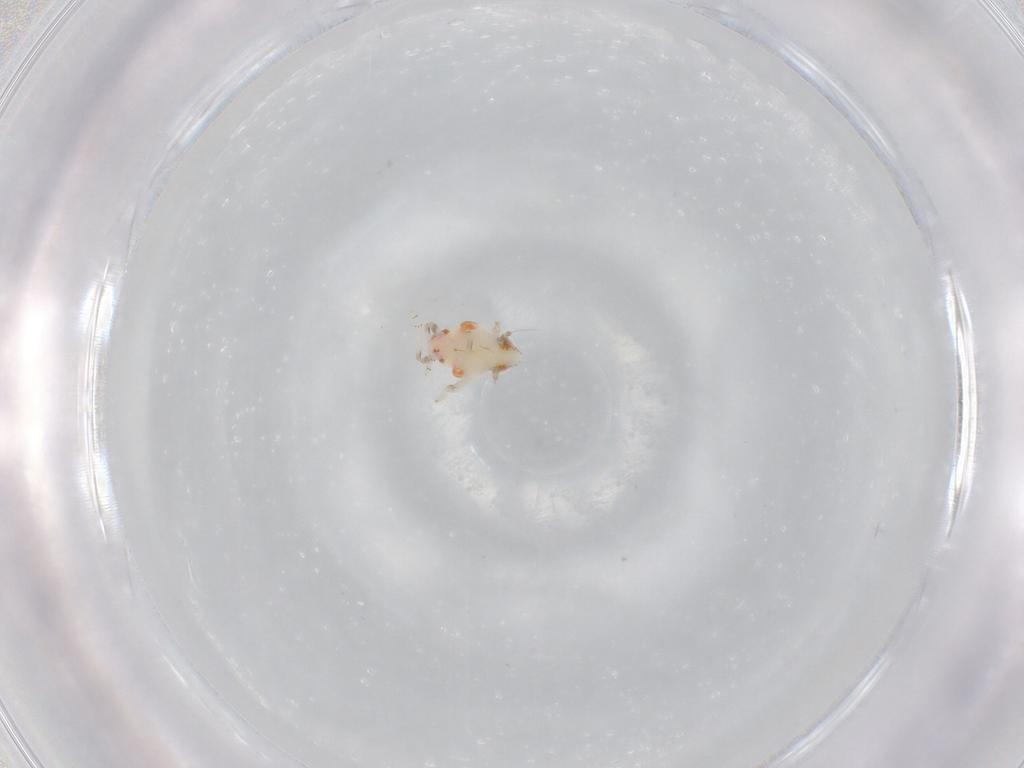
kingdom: Animalia
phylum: Arthropoda
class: Insecta
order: Hemiptera
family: Nogodinidae
